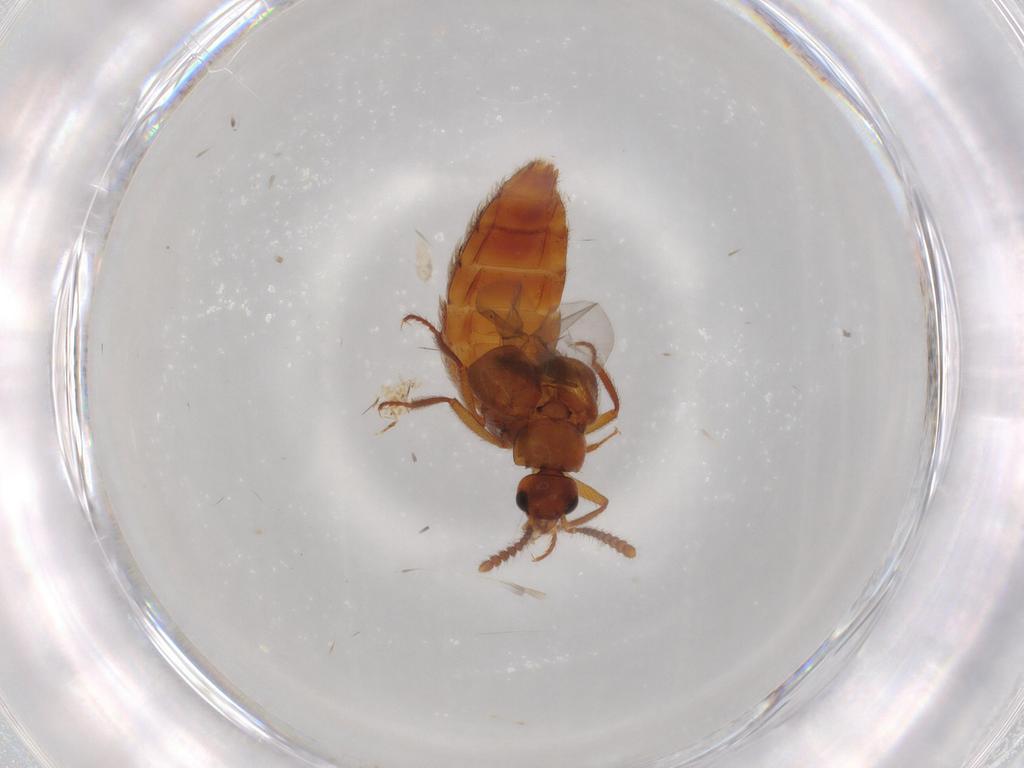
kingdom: Animalia
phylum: Arthropoda
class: Insecta
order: Coleoptera
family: Staphylinidae
